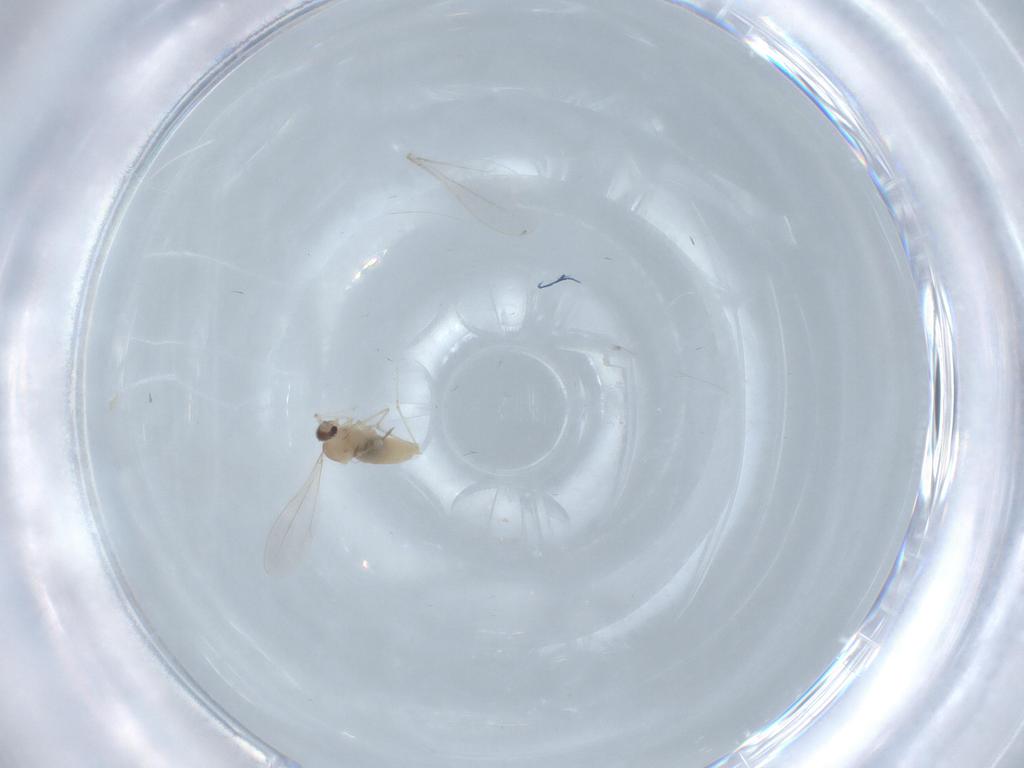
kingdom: Animalia
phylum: Arthropoda
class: Insecta
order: Diptera
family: Cecidomyiidae
